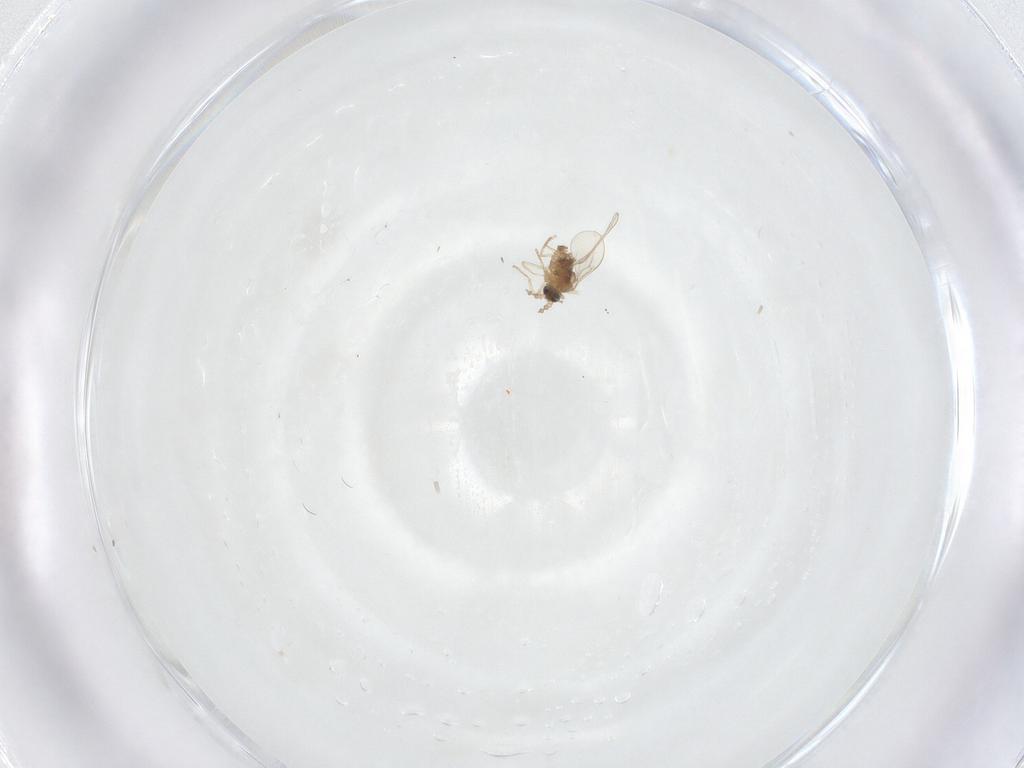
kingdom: Animalia
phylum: Arthropoda
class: Insecta
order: Diptera
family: Cecidomyiidae
